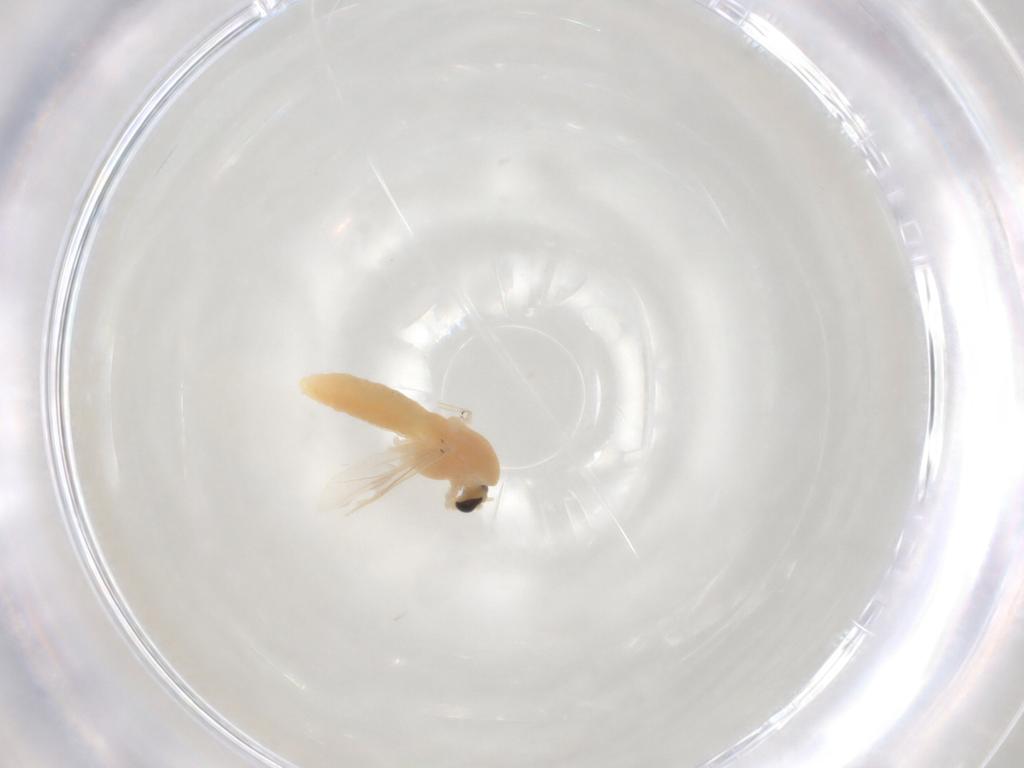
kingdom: Animalia
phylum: Arthropoda
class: Insecta
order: Diptera
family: Chironomidae
